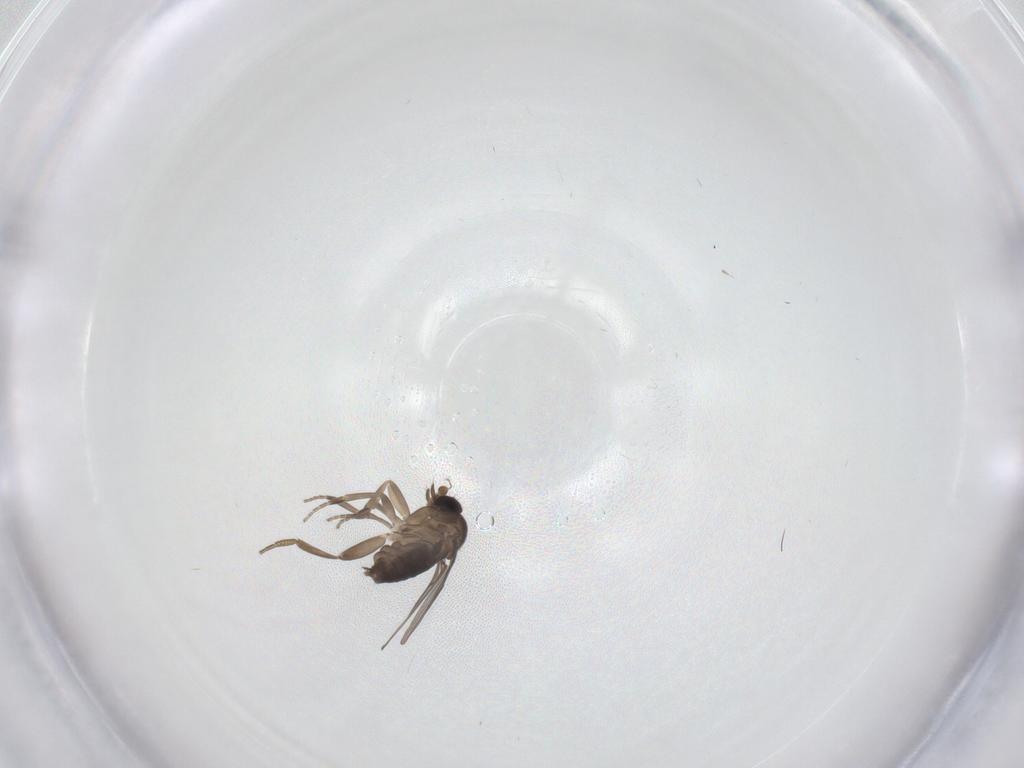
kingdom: Animalia
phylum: Arthropoda
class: Insecta
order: Diptera
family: Phoridae
